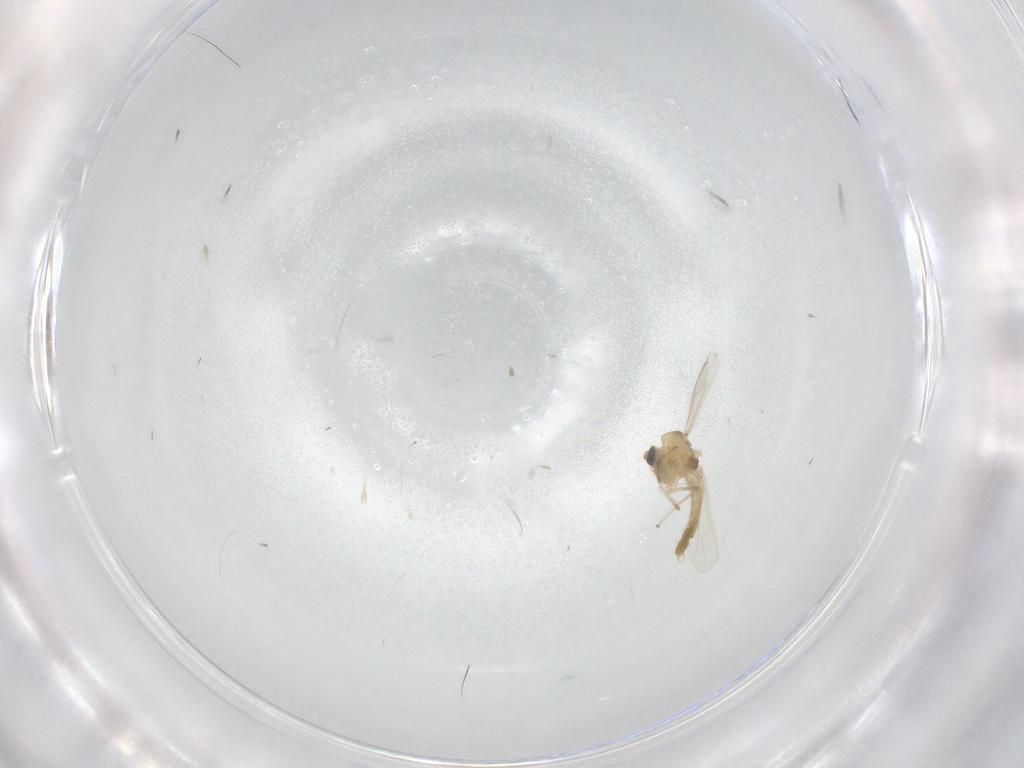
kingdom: Animalia
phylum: Arthropoda
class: Insecta
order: Diptera
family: Chironomidae
